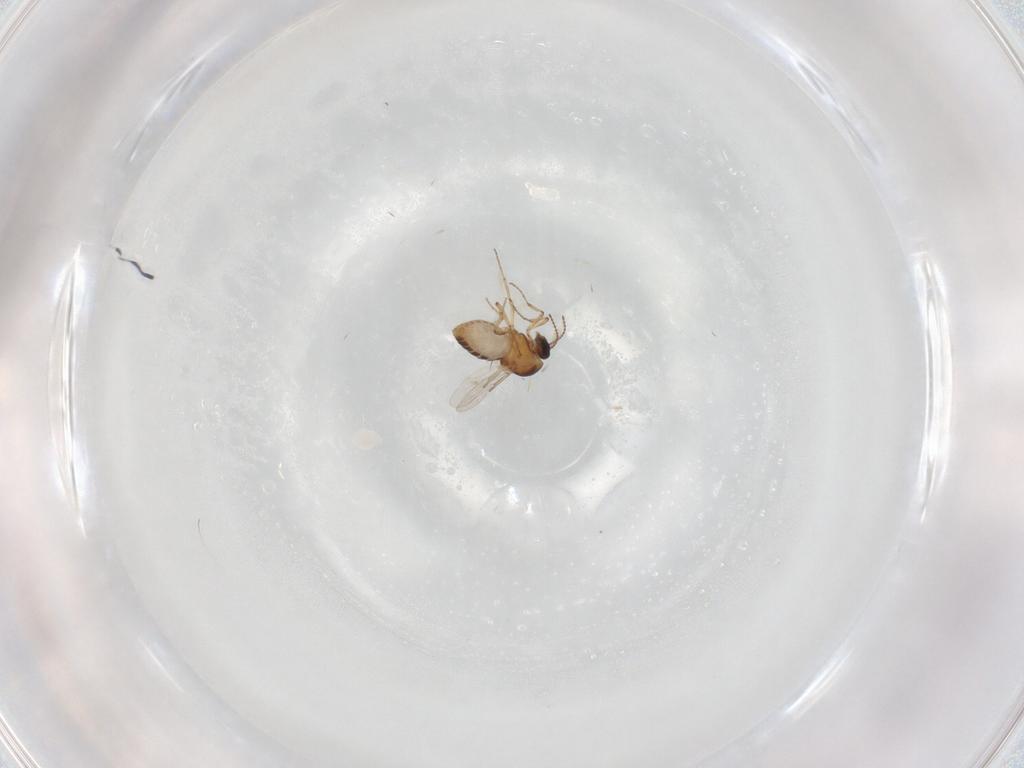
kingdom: Animalia
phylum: Arthropoda
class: Insecta
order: Diptera
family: Ceratopogonidae
